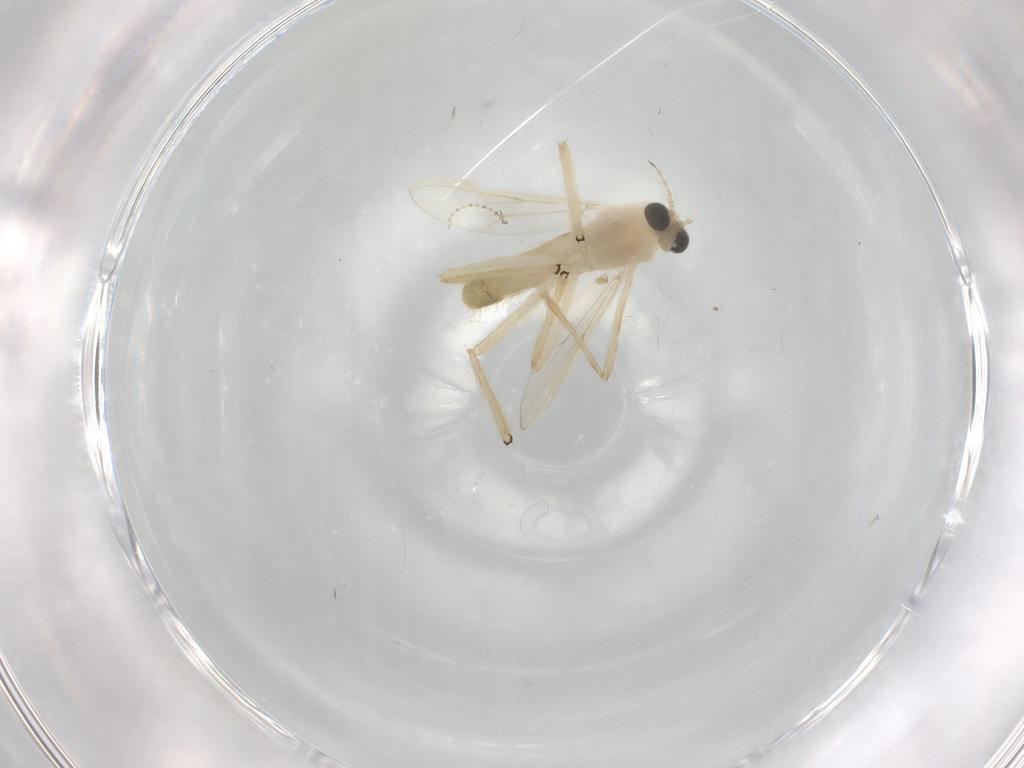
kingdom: Animalia
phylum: Arthropoda
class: Insecta
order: Diptera
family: Chironomidae
